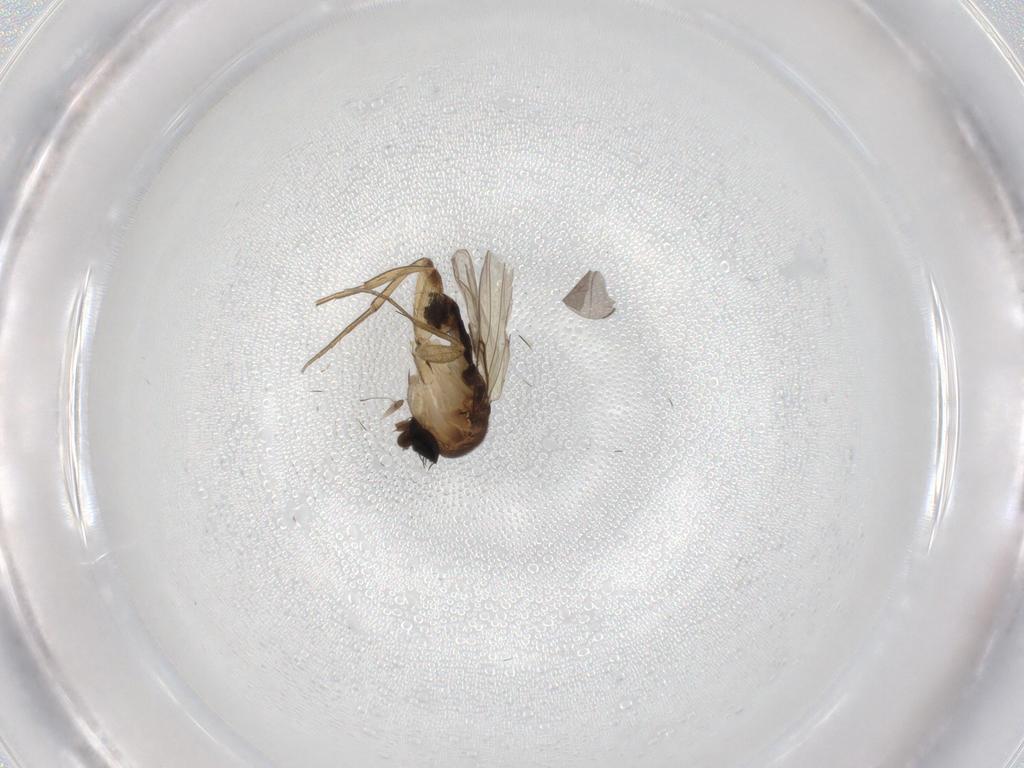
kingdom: Animalia
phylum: Arthropoda
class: Insecta
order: Diptera
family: Phoridae
